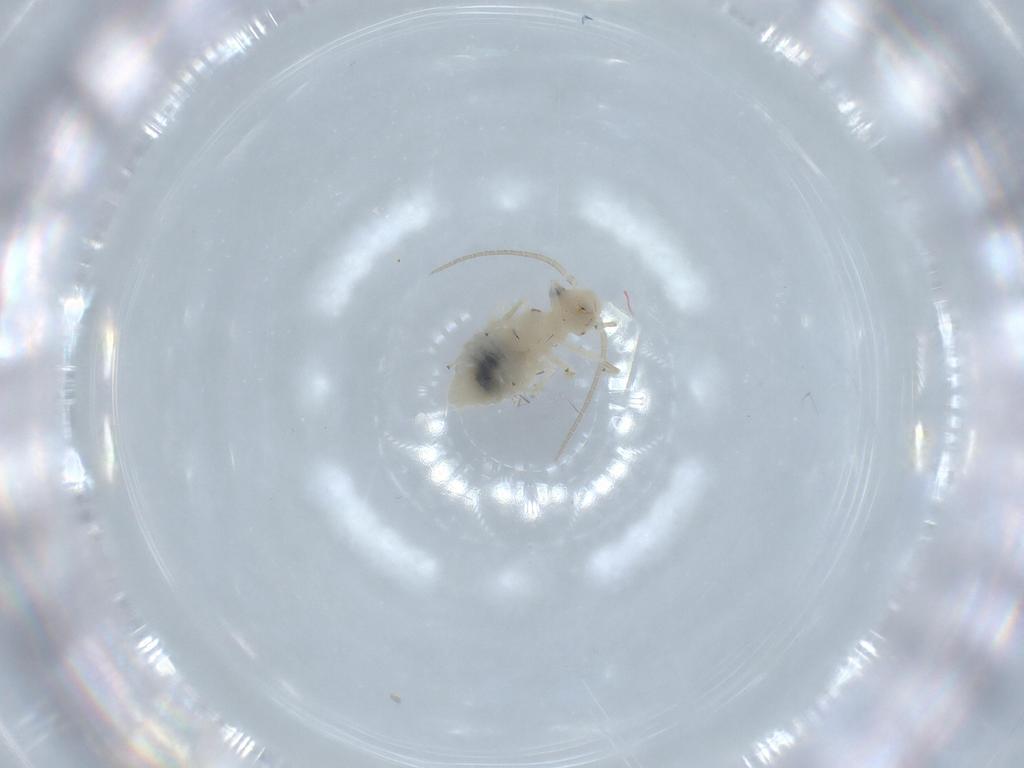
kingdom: Animalia
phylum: Arthropoda
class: Insecta
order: Psocodea
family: Caeciliusidae
